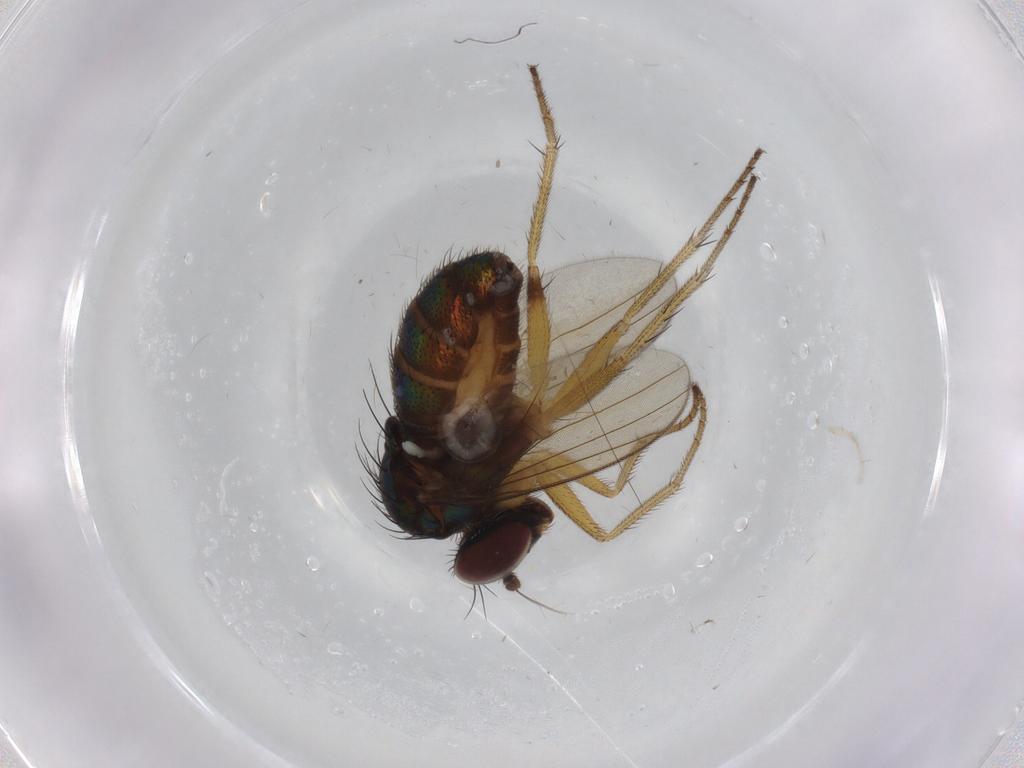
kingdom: Animalia
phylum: Arthropoda
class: Insecta
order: Diptera
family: Dolichopodidae
